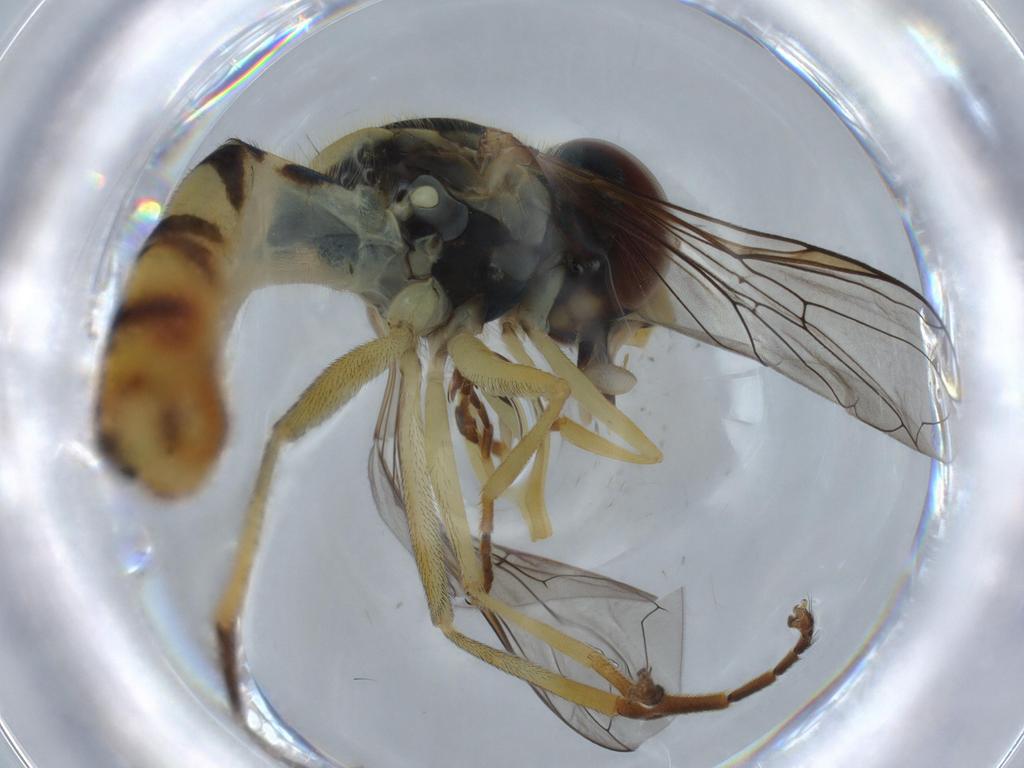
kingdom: Animalia
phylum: Arthropoda
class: Insecta
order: Diptera
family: Syrphidae
